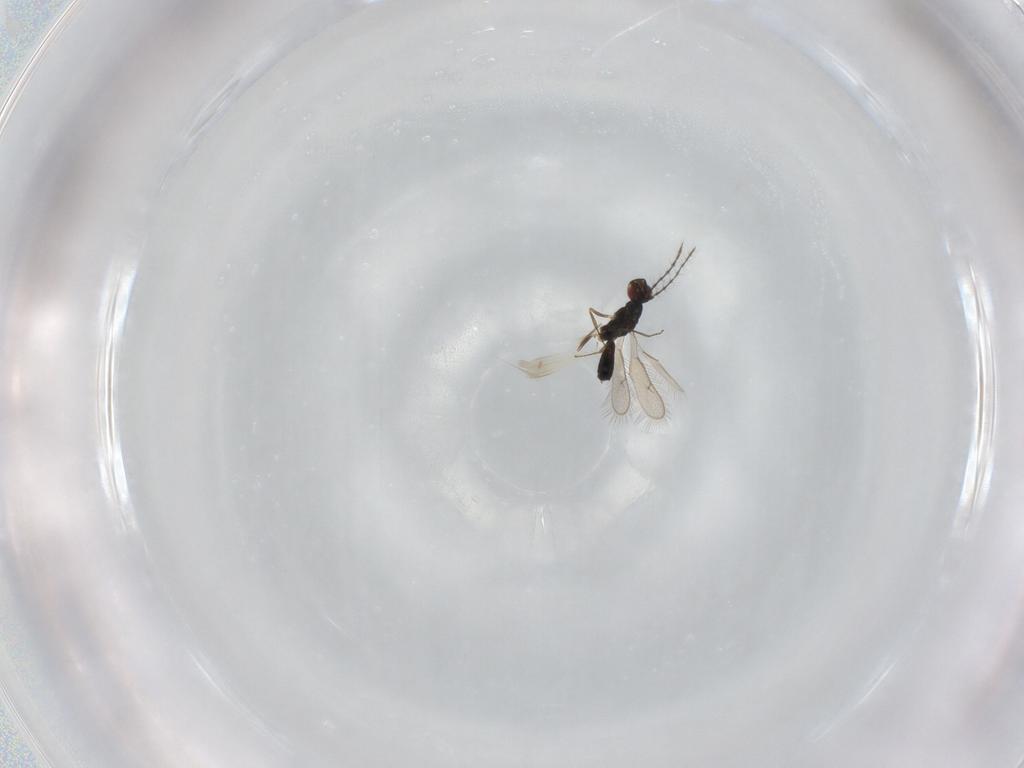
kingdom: Animalia
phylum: Arthropoda
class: Insecta
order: Hymenoptera
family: Pteromalidae
